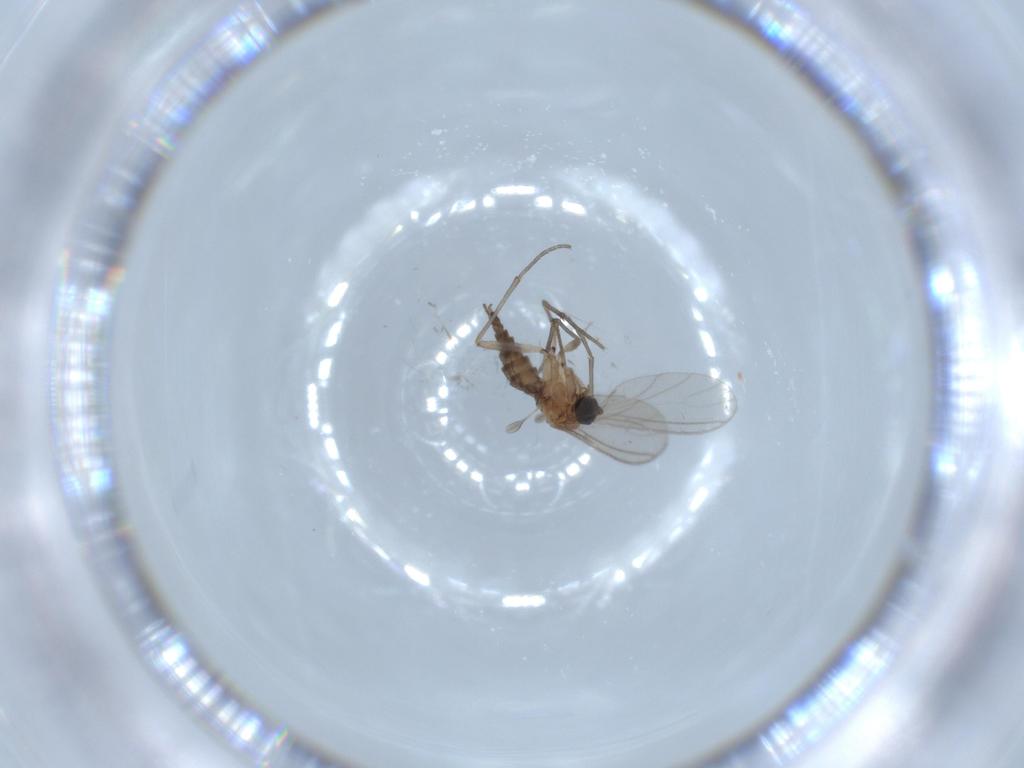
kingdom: Animalia
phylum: Arthropoda
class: Insecta
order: Diptera
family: Sciaridae
